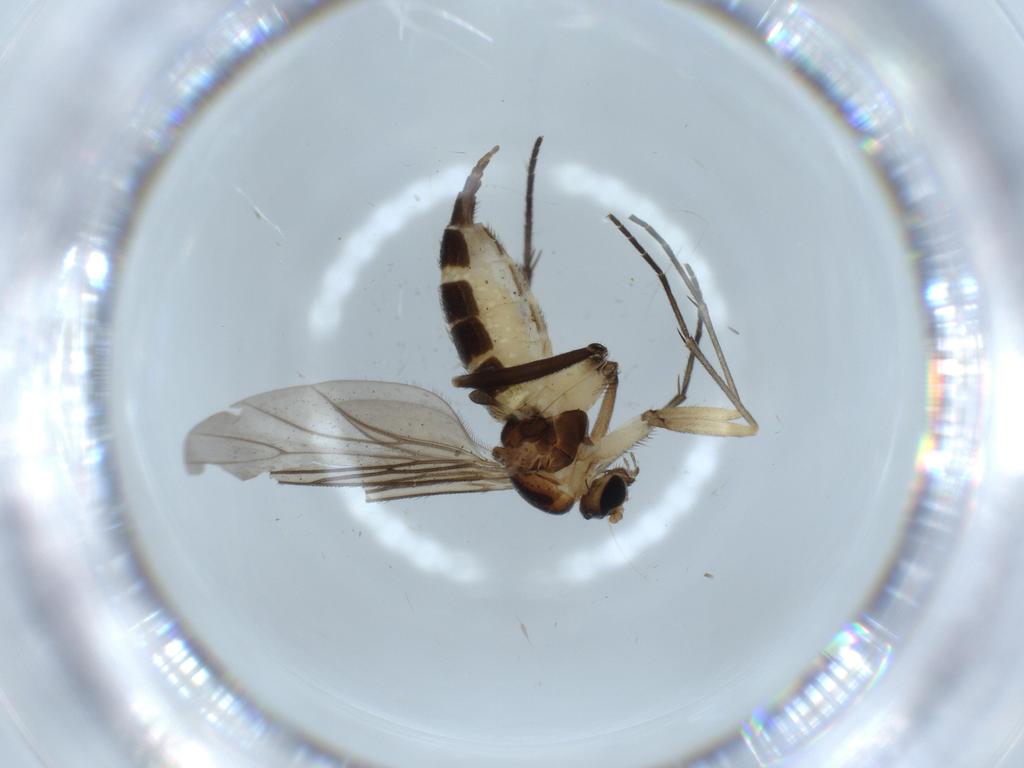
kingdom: Animalia
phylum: Arthropoda
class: Insecta
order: Diptera
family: Sciaridae
